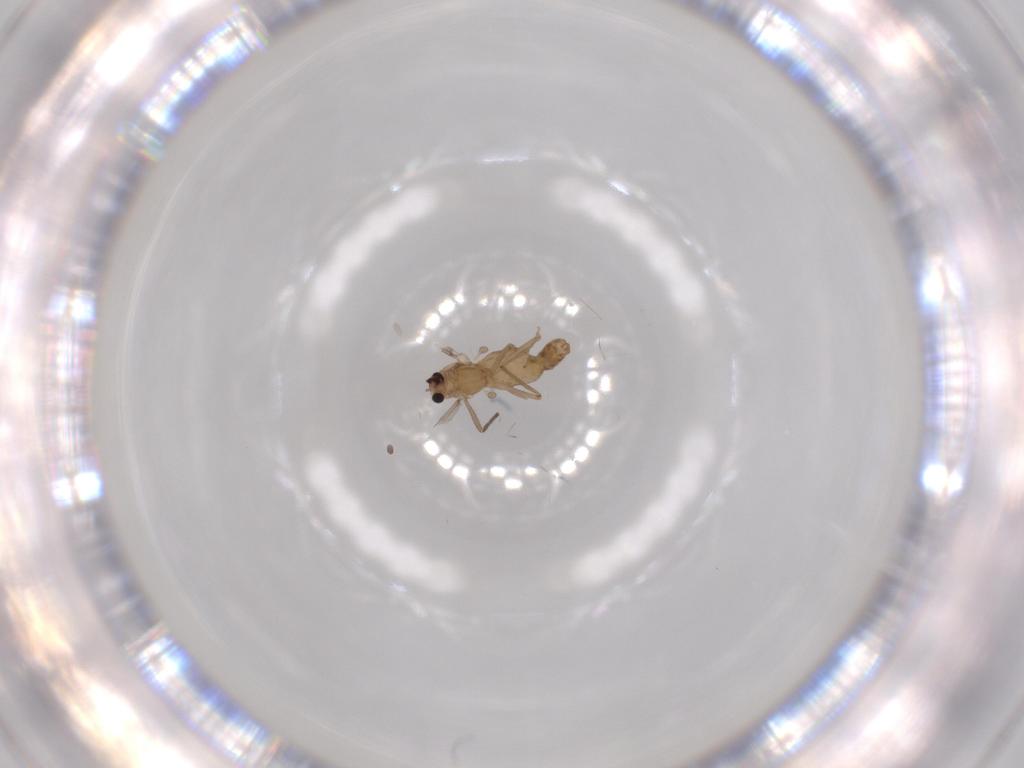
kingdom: Animalia
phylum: Arthropoda
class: Insecta
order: Diptera
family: Chironomidae
